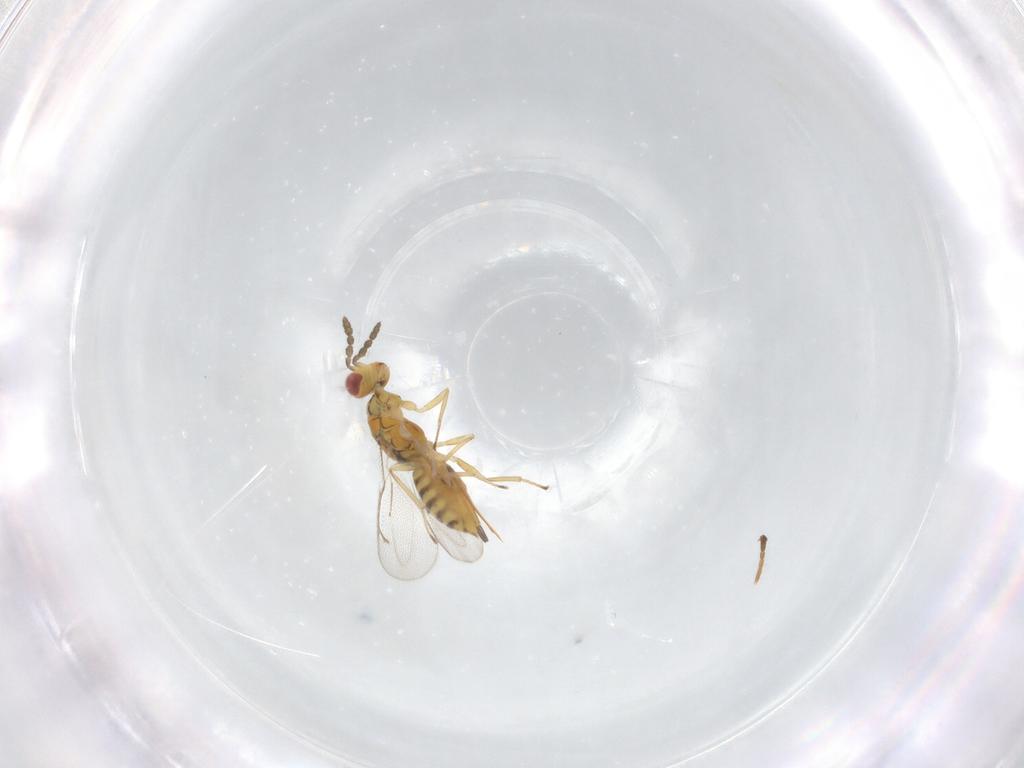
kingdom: Animalia
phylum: Arthropoda
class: Insecta
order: Hymenoptera
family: Eulophidae
